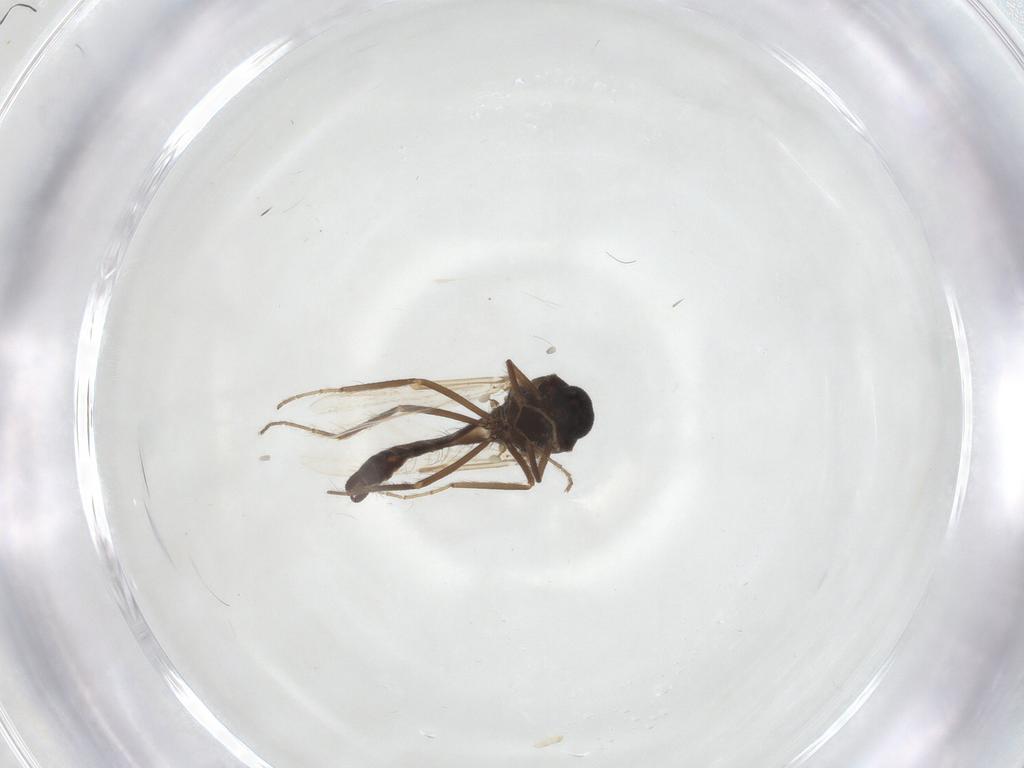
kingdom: Animalia
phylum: Arthropoda
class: Insecta
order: Diptera
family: Ceratopogonidae
